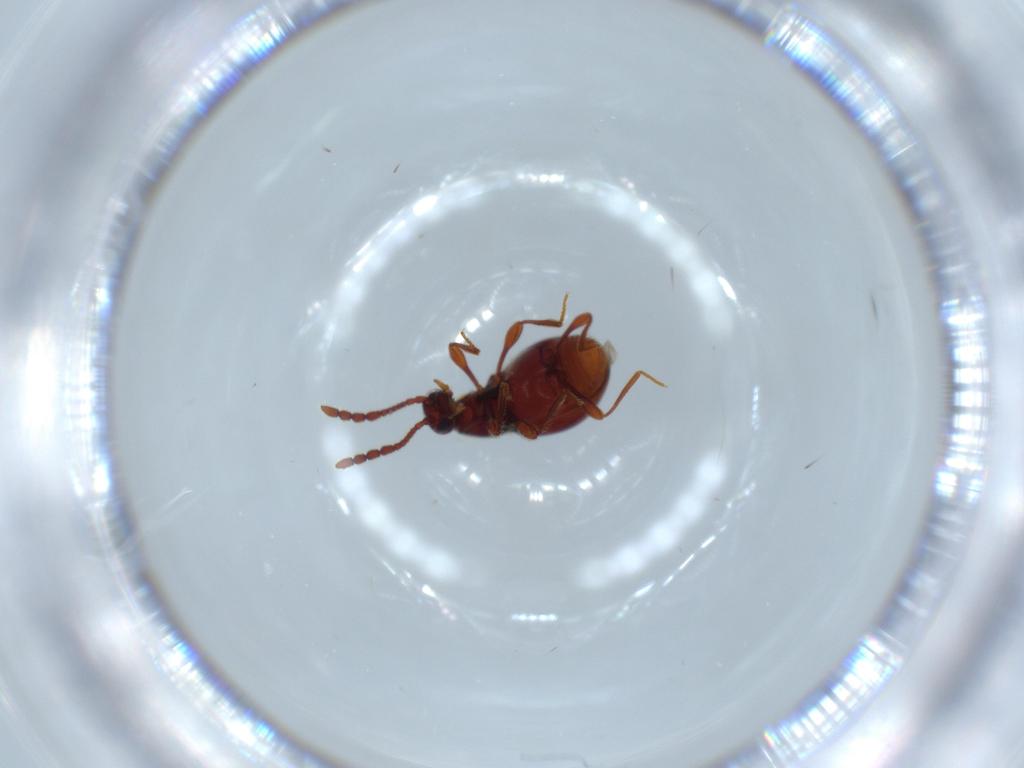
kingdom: Animalia
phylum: Arthropoda
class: Insecta
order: Coleoptera
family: Staphylinidae
